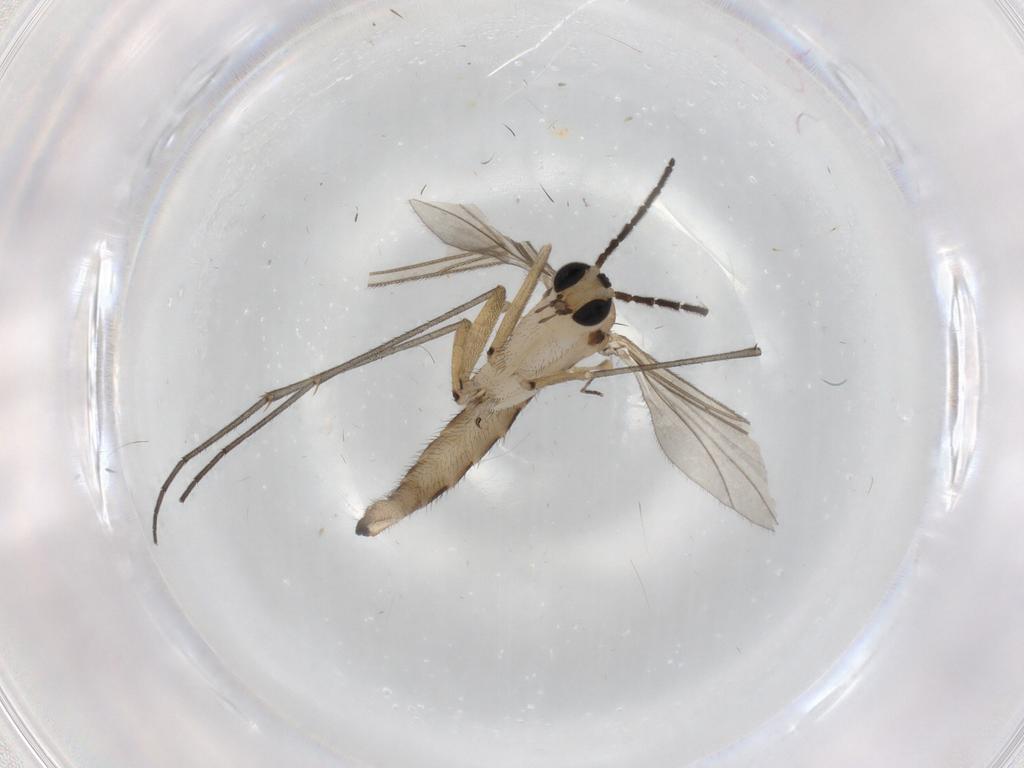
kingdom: Animalia
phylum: Arthropoda
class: Insecta
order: Diptera
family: Sciaridae
